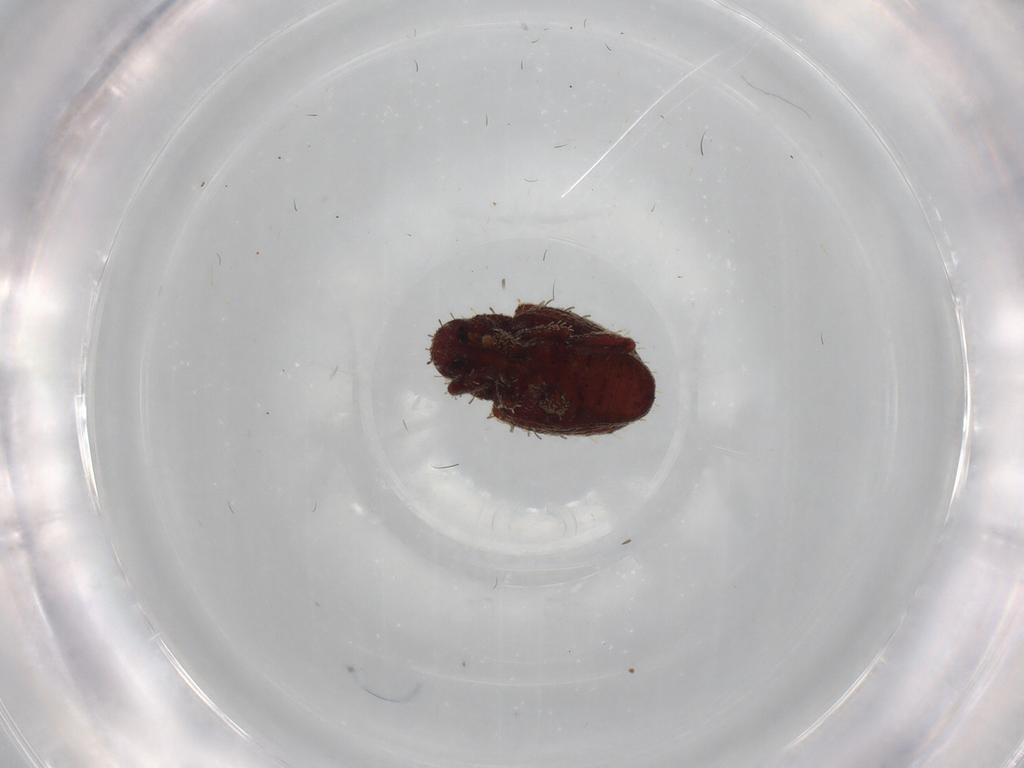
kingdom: Animalia
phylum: Arthropoda
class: Insecta
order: Coleoptera
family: Curculionidae
